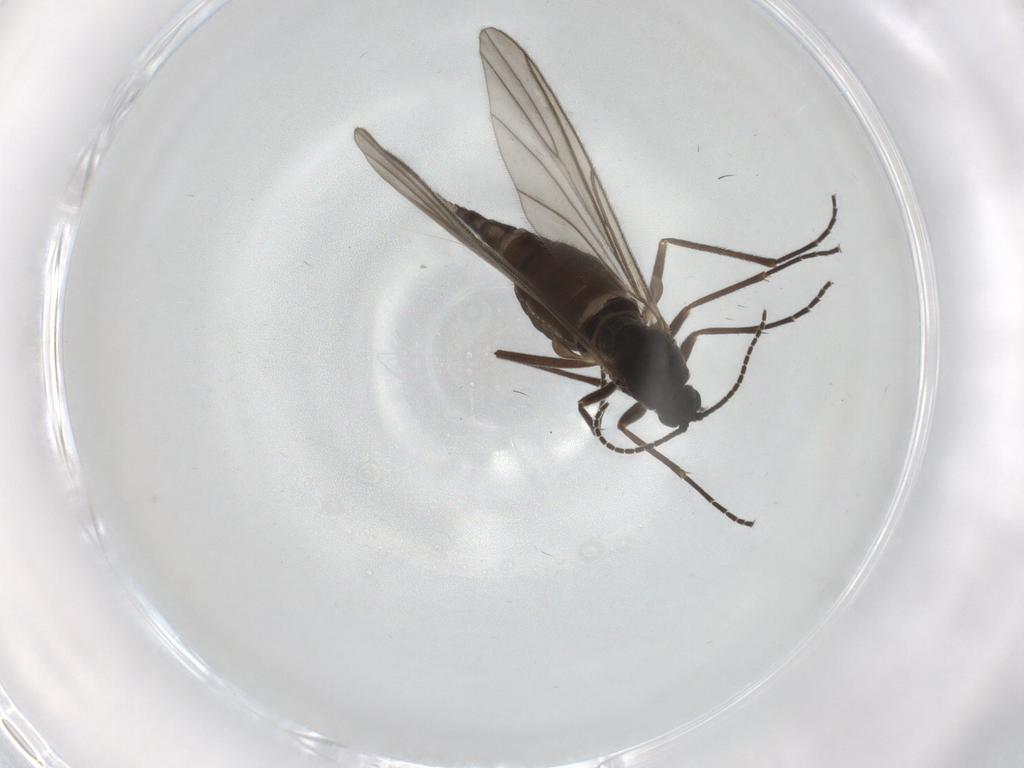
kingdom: Animalia
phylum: Arthropoda
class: Insecta
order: Diptera
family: Sciaridae
